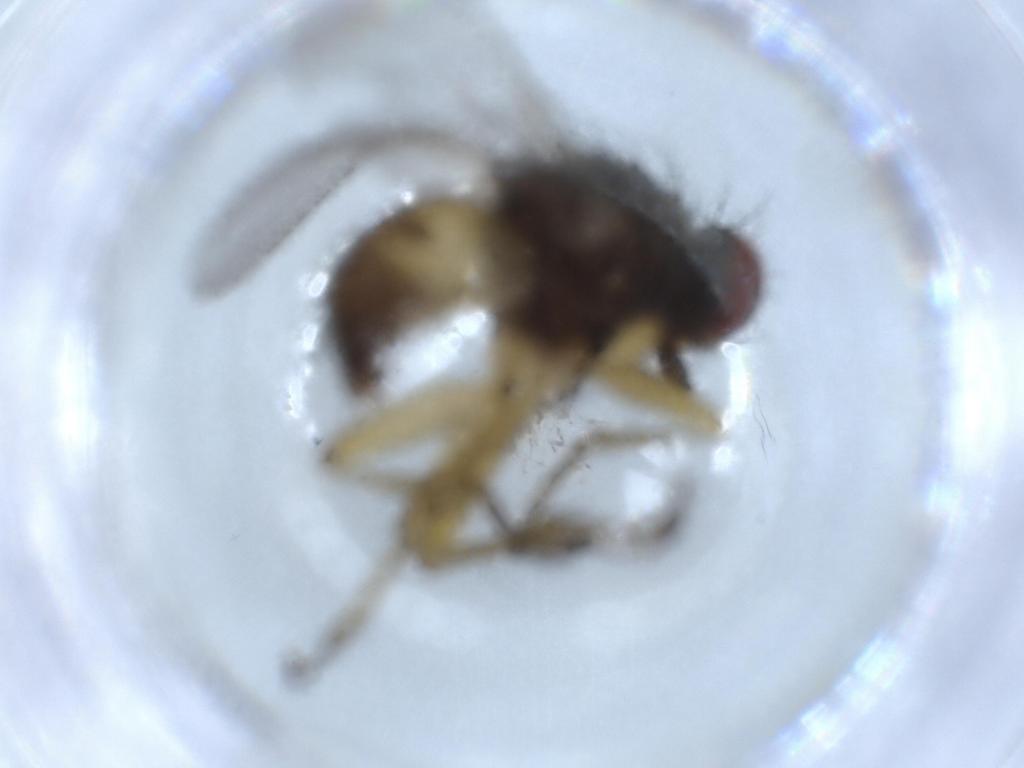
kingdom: Animalia
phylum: Arthropoda
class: Insecta
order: Diptera
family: Muscidae
